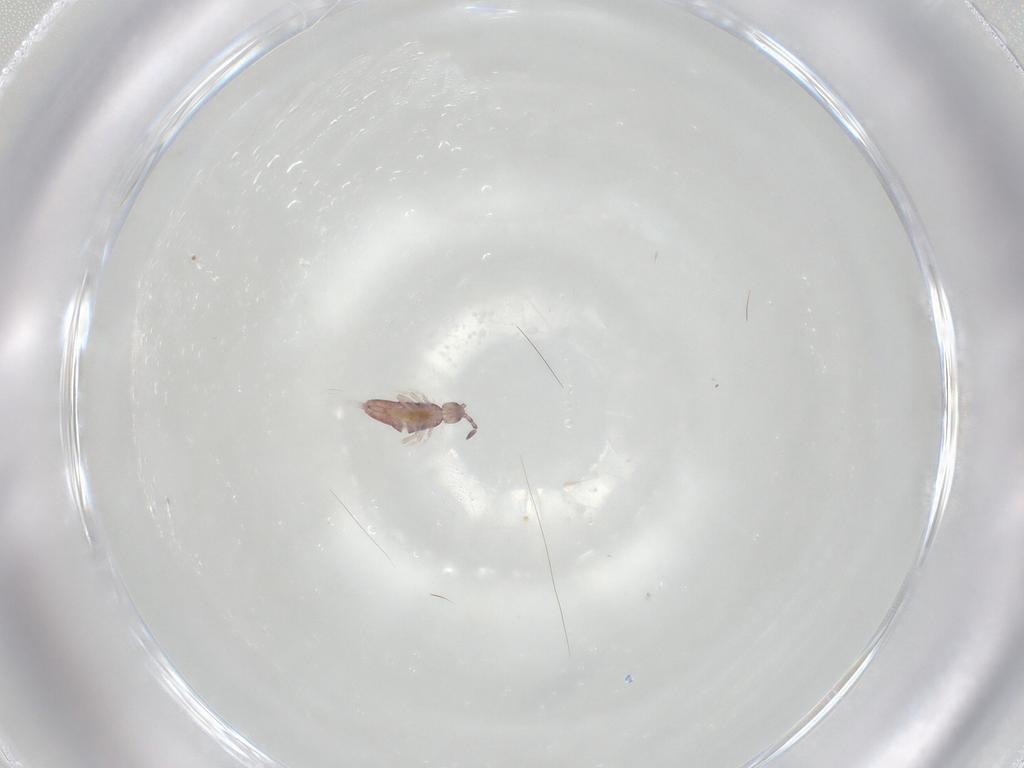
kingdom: Animalia
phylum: Arthropoda
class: Collembola
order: Entomobryomorpha
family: Entomobryidae
